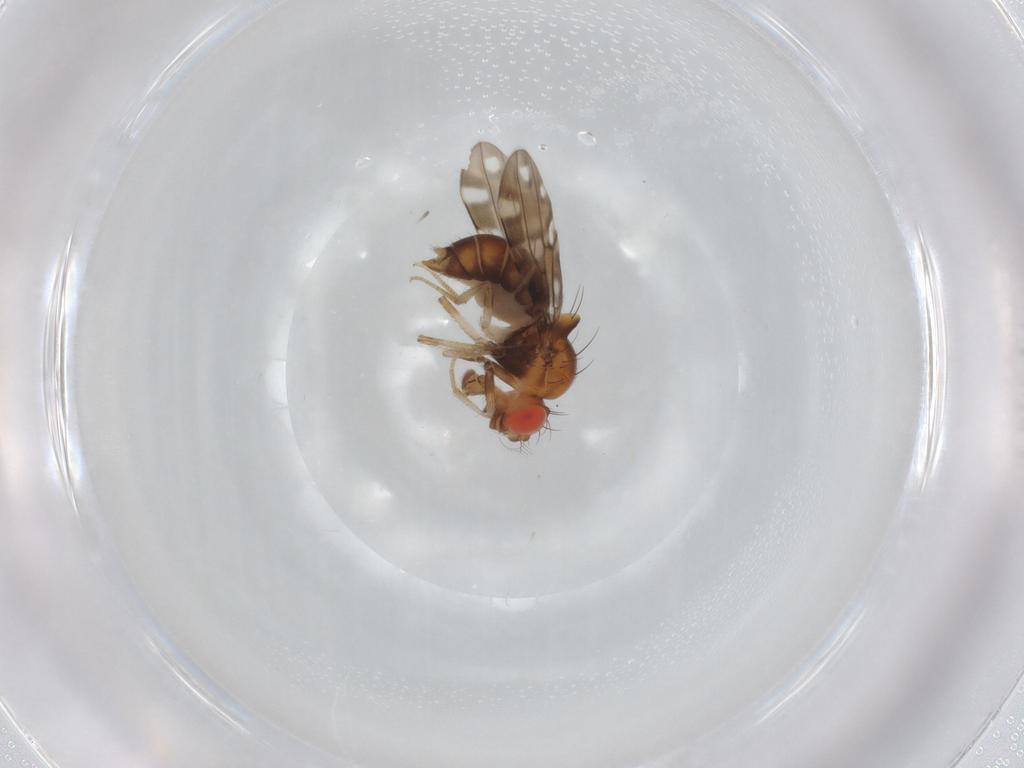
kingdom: Animalia
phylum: Arthropoda
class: Insecta
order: Diptera
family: Drosophilidae
